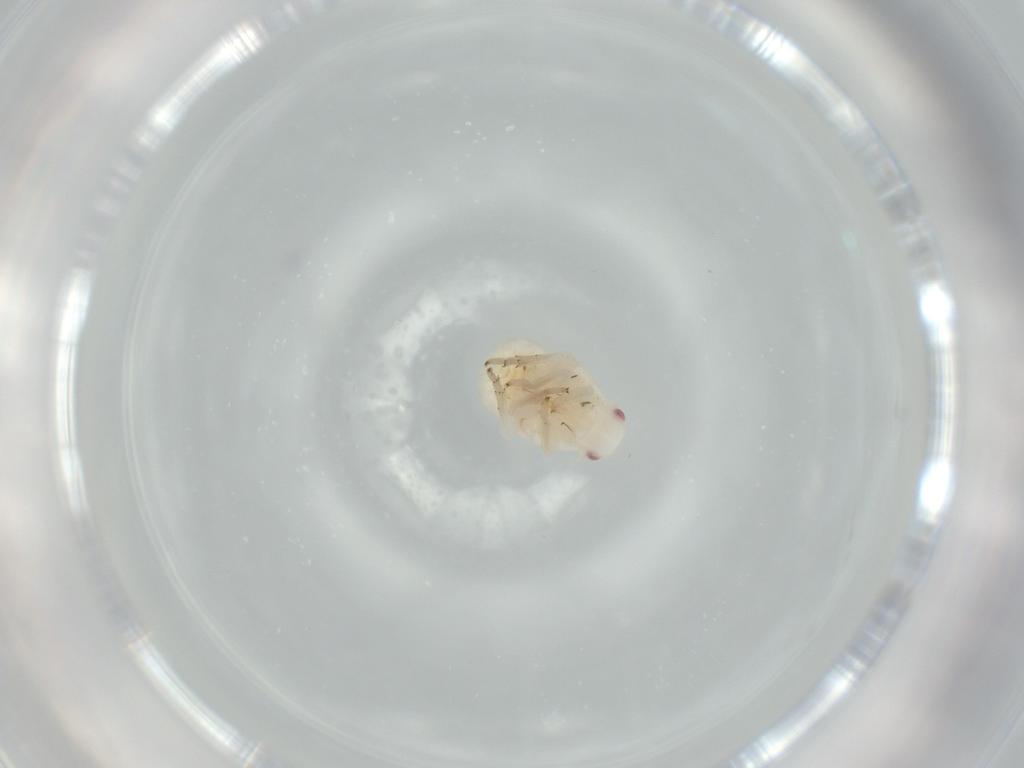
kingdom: Animalia
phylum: Arthropoda
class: Insecta
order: Hemiptera
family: Flatidae
